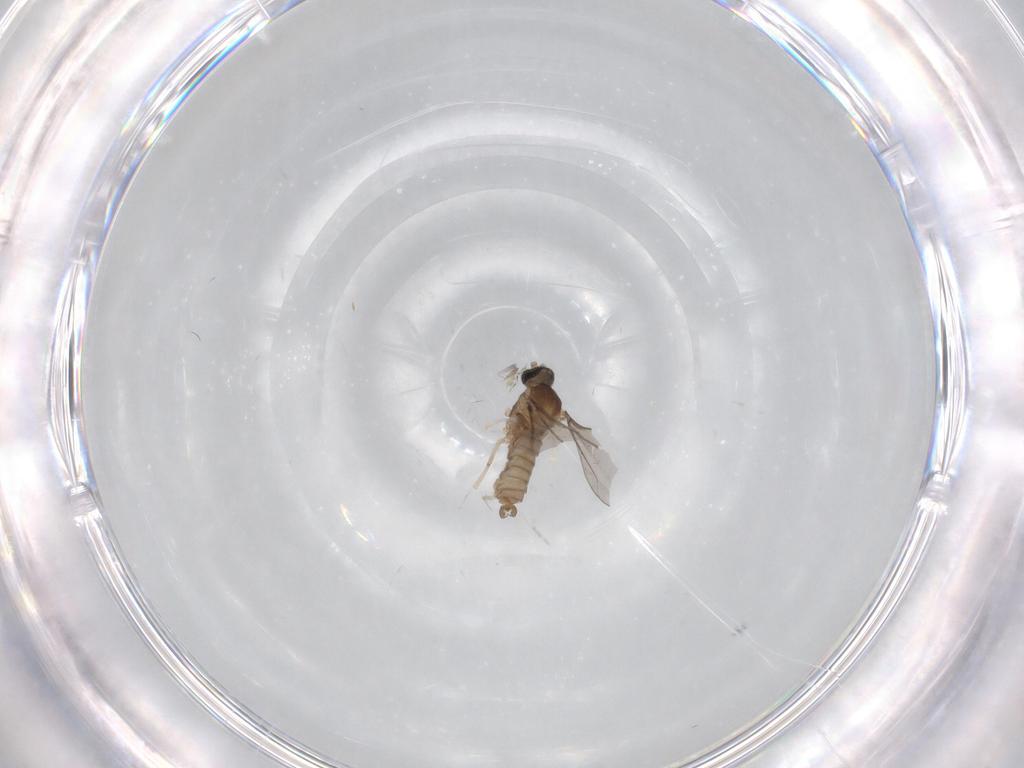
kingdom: Animalia
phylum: Arthropoda
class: Insecta
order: Diptera
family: Cecidomyiidae
